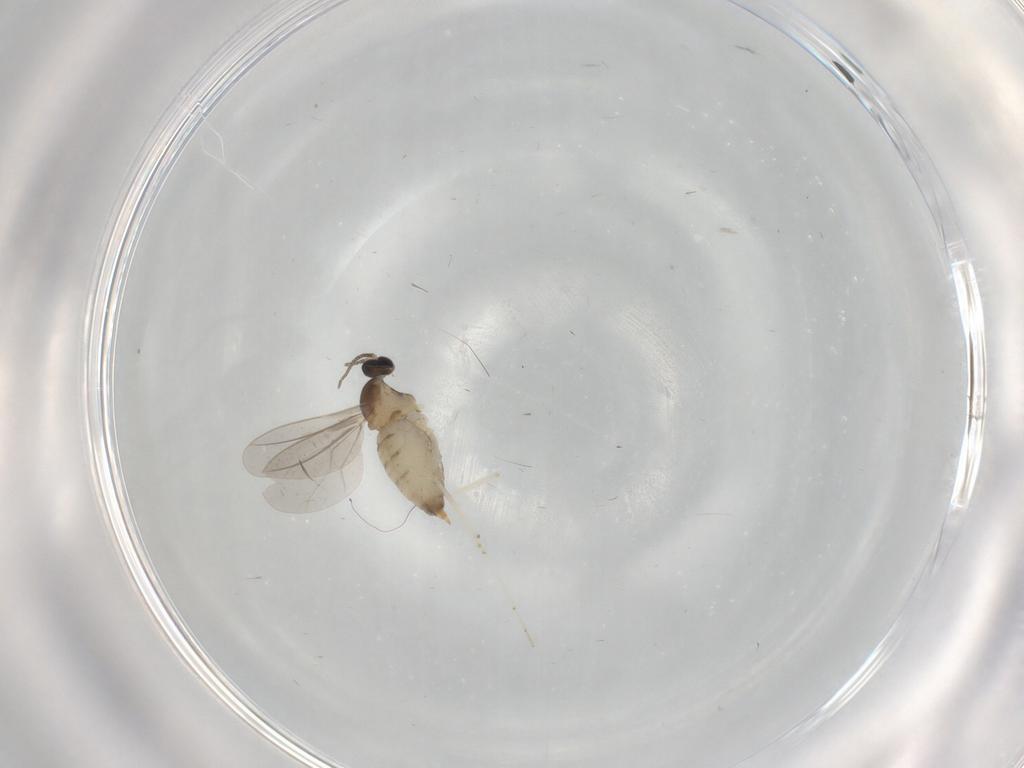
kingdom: Animalia
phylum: Arthropoda
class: Insecta
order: Diptera
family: Cecidomyiidae
